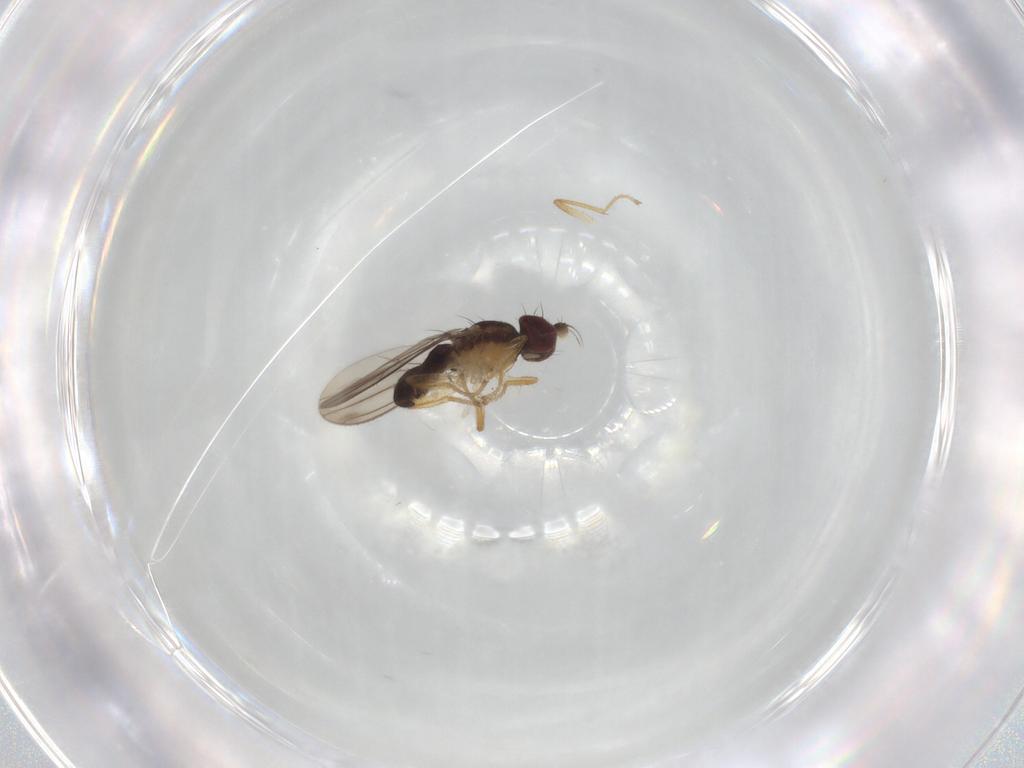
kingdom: Animalia
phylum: Arthropoda
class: Insecta
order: Diptera
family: Anthomyzidae
